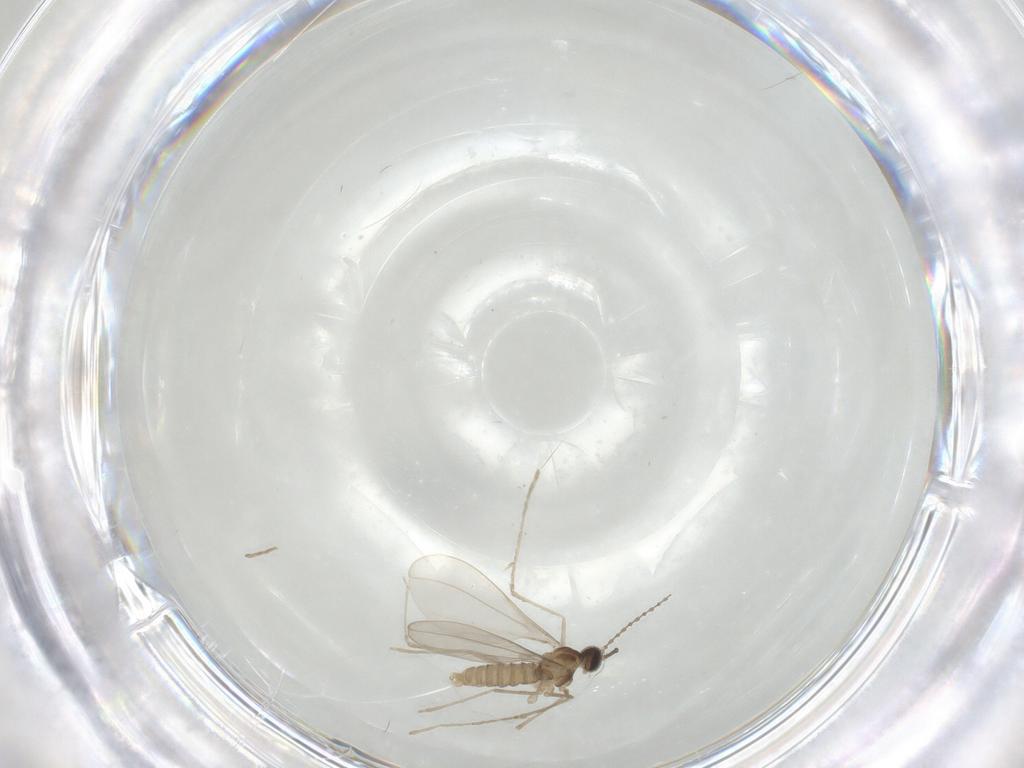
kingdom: Animalia
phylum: Arthropoda
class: Insecta
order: Diptera
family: Cecidomyiidae
